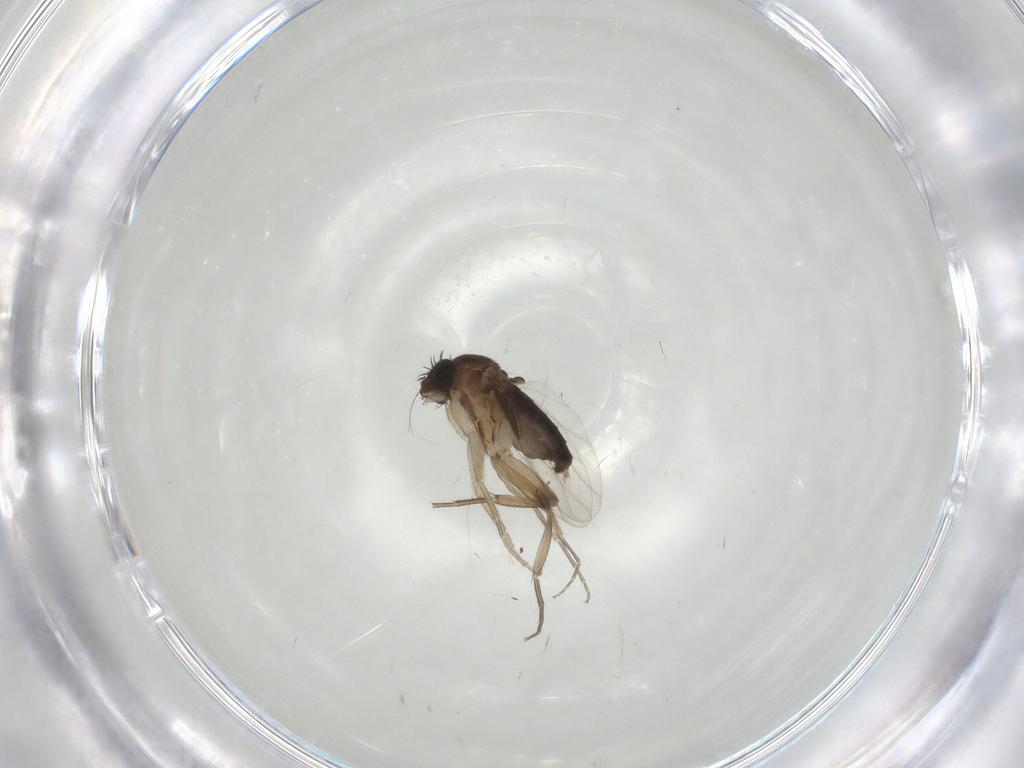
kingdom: Animalia
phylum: Arthropoda
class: Insecta
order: Diptera
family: Phoridae
